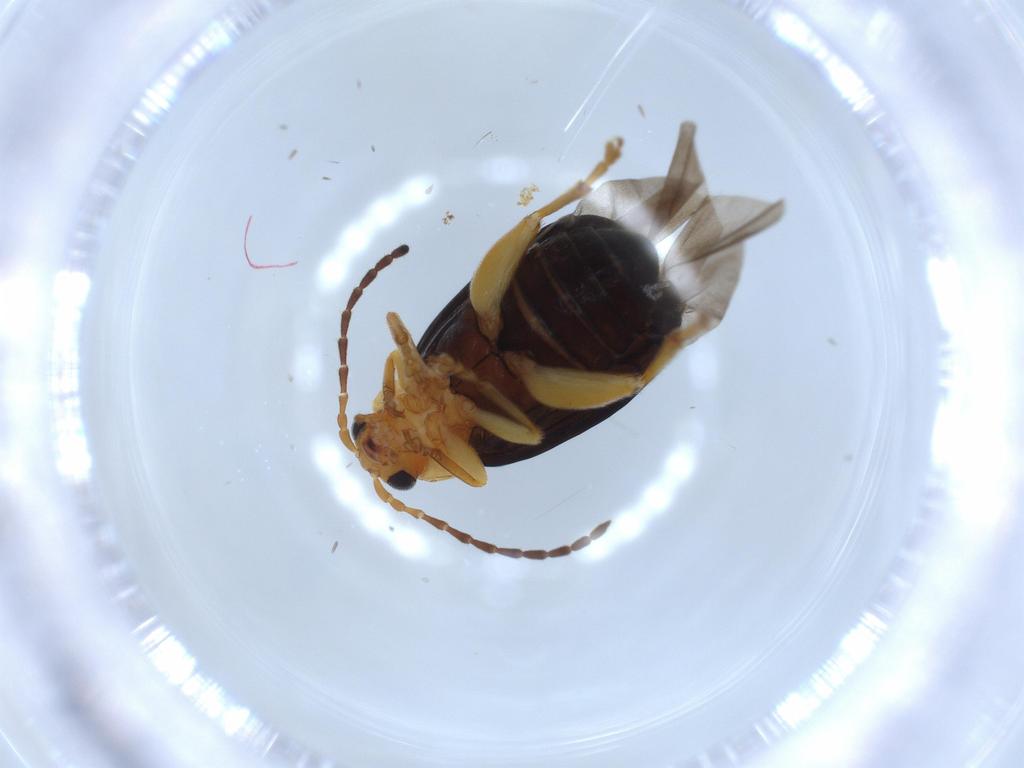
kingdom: Animalia
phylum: Arthropoda
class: Insecta
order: Coleoptera
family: Chrysomelidae
